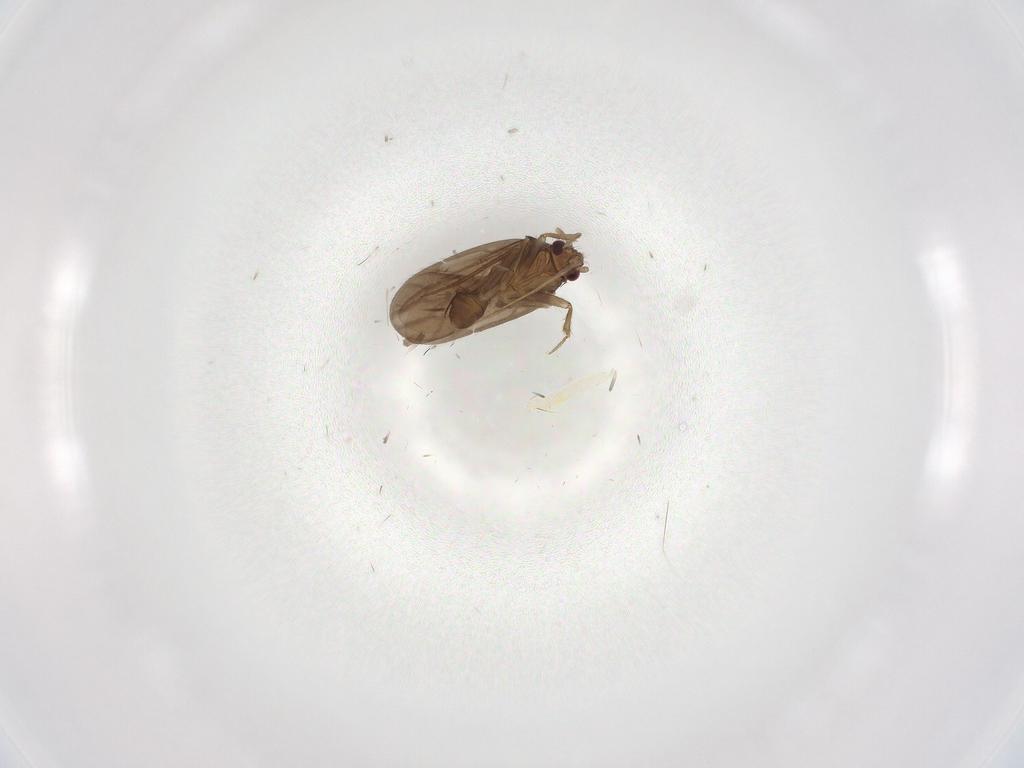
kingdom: Animalia
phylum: Arthropoda
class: Insecta
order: Hemiptera
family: Cicadellidae
